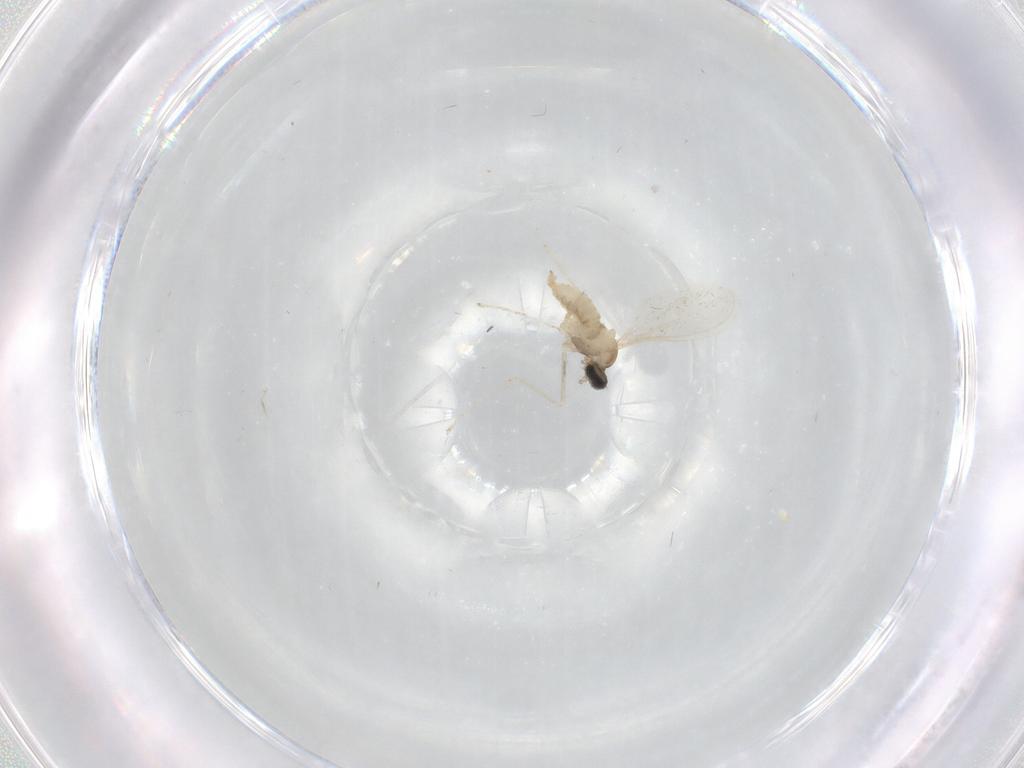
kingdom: Animalia
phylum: Arthropoda
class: Insecta
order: Diptera
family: Cecidomyiidae
